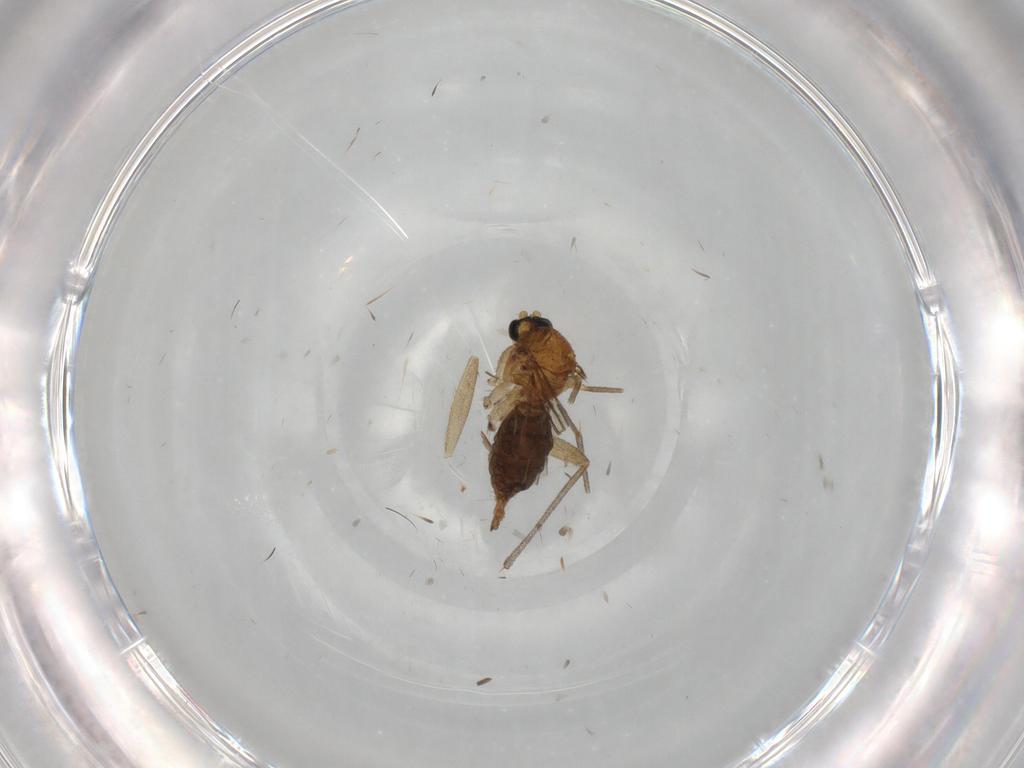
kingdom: Animalia
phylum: Arthropoda
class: Insecta
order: Diptera
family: Sciaridae
